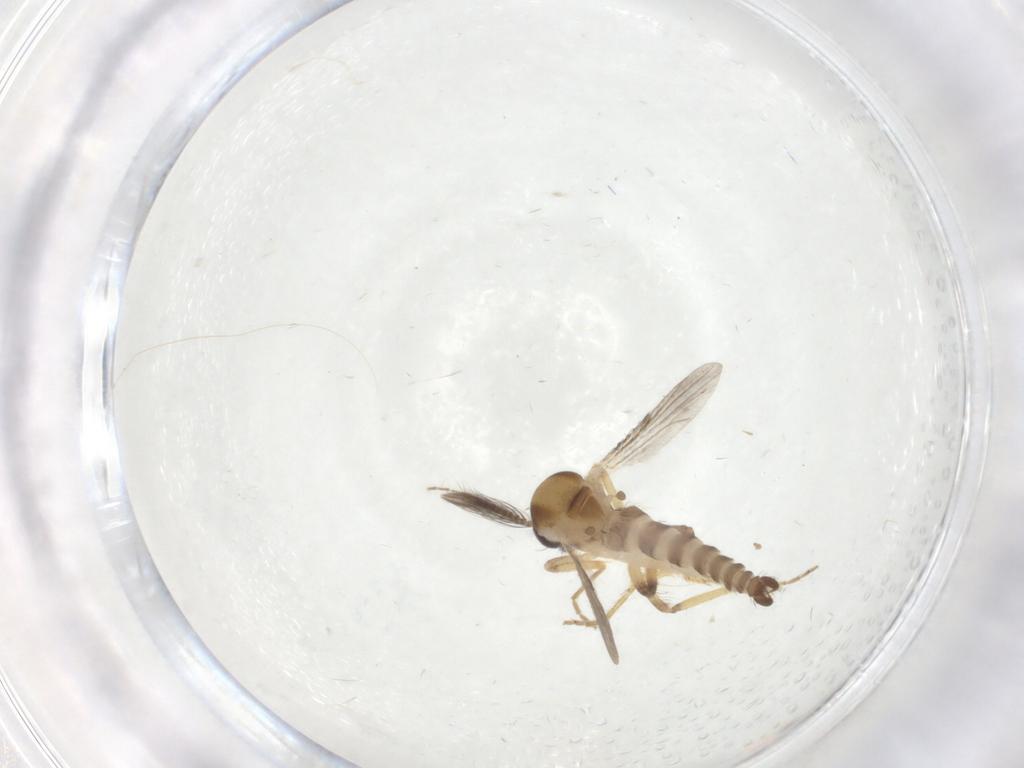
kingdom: Animalia
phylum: Arthropoda
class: Insecta
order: Diptera
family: Ceratopogonidae
